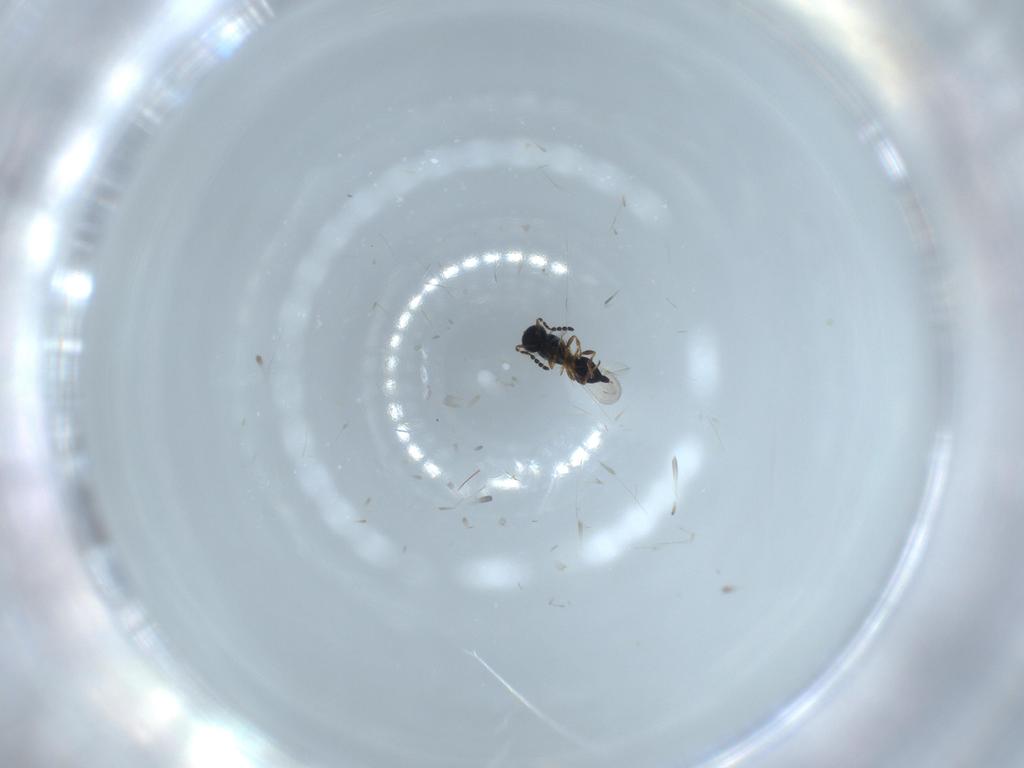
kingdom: Animalia
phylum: Arthropoda
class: Insecta
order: Hymenoptera
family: Platygastridae
